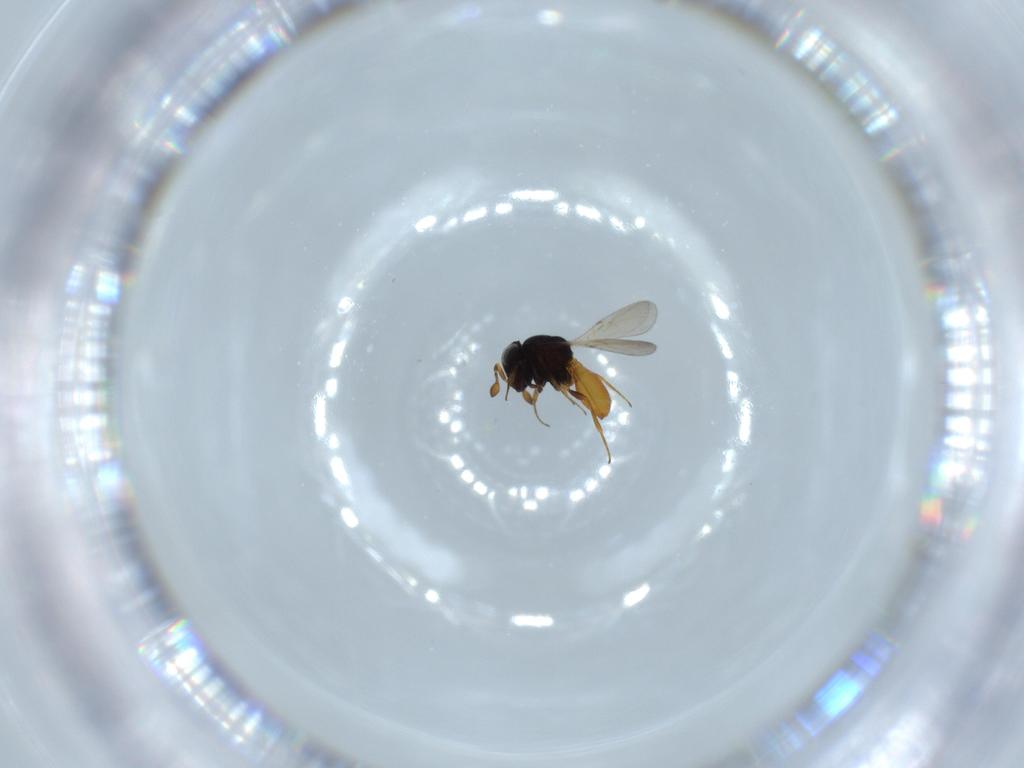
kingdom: Animalia
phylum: Arthropoda
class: Insecta
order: Hymenoptera
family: Scelionidae
